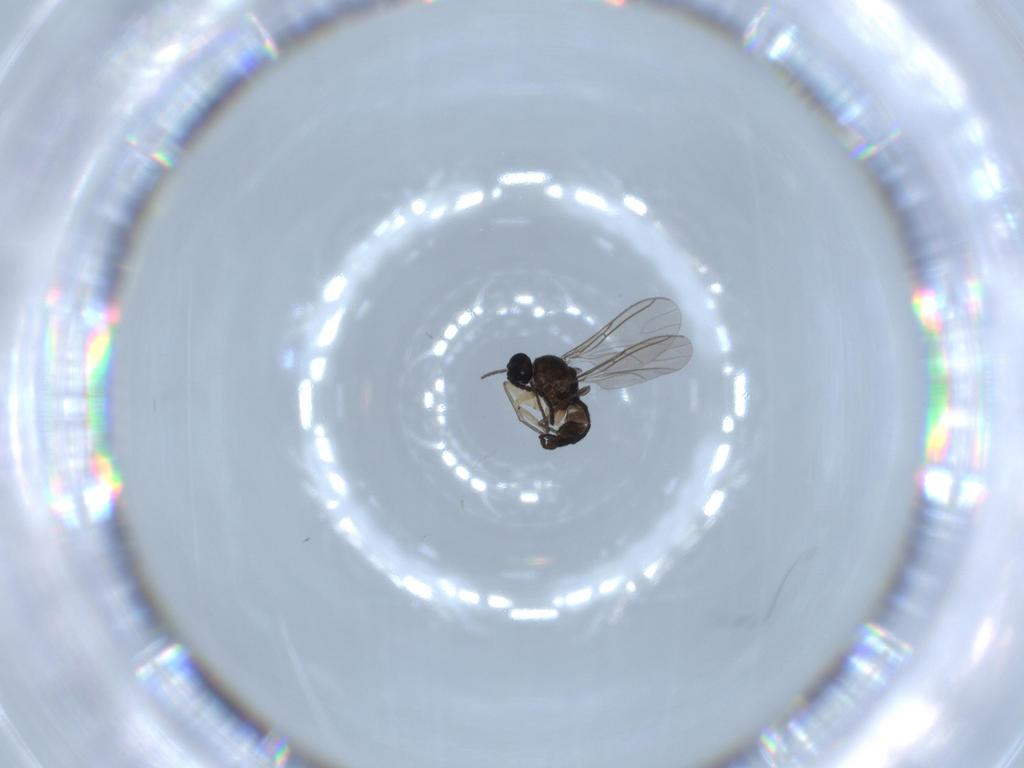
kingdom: Animalia
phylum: Arthropoda
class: Insecta
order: Diptera
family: Sciaridae
